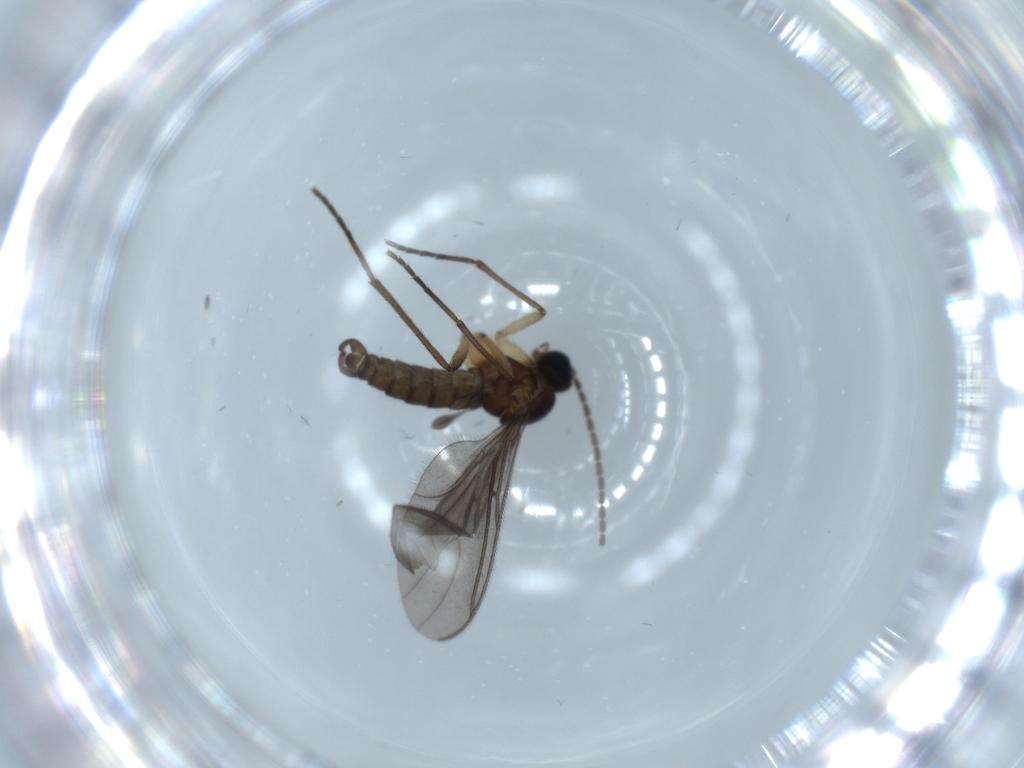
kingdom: Animalia
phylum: Arthropoda
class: Insecta
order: Diptera
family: Sciaridae
